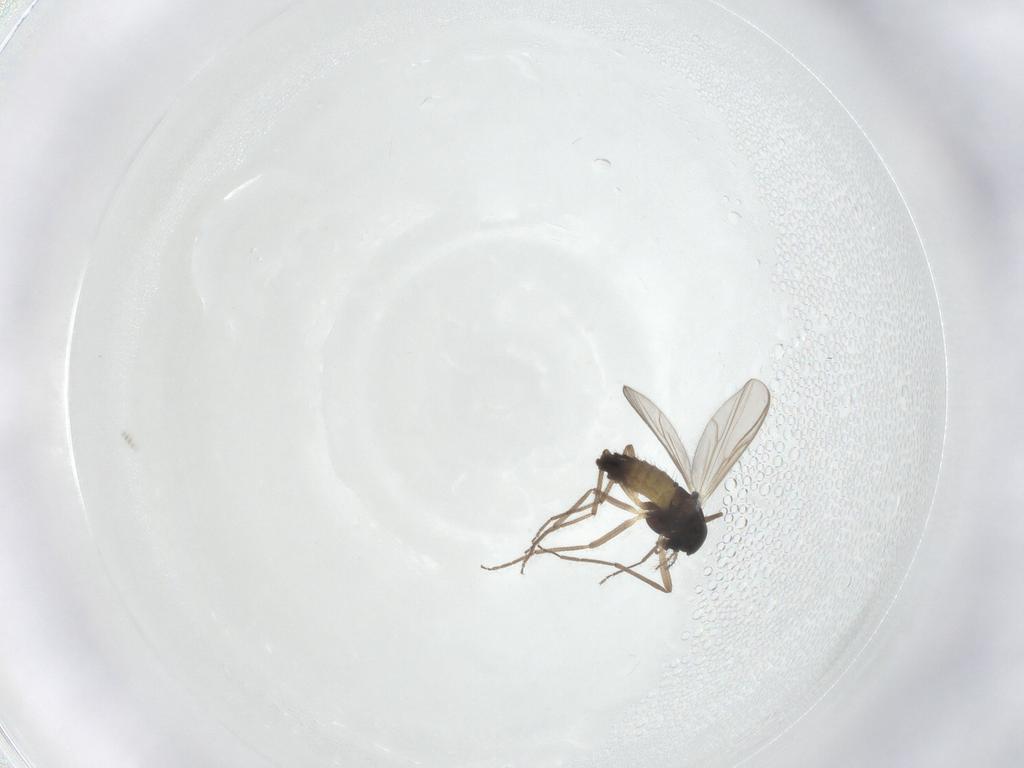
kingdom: Animalia
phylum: Arthropoda
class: Insecta
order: Diptera
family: Chironomidae
